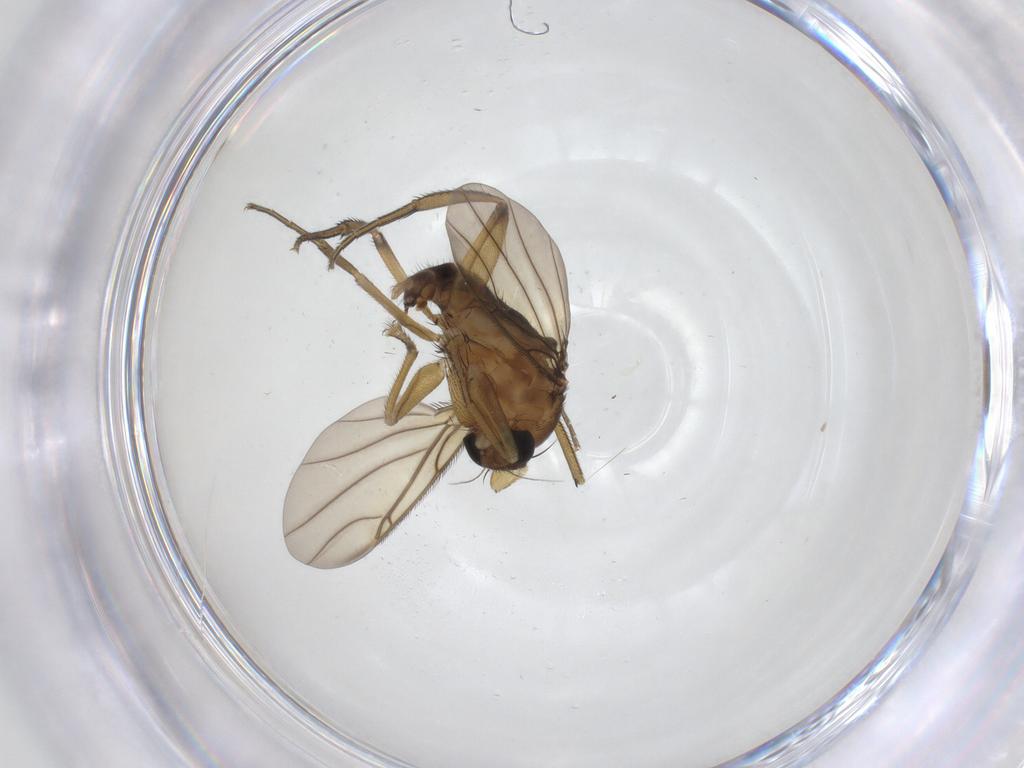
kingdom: Animalia
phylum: Arthropoda
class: Insecta
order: Diptera
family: Phoridae
